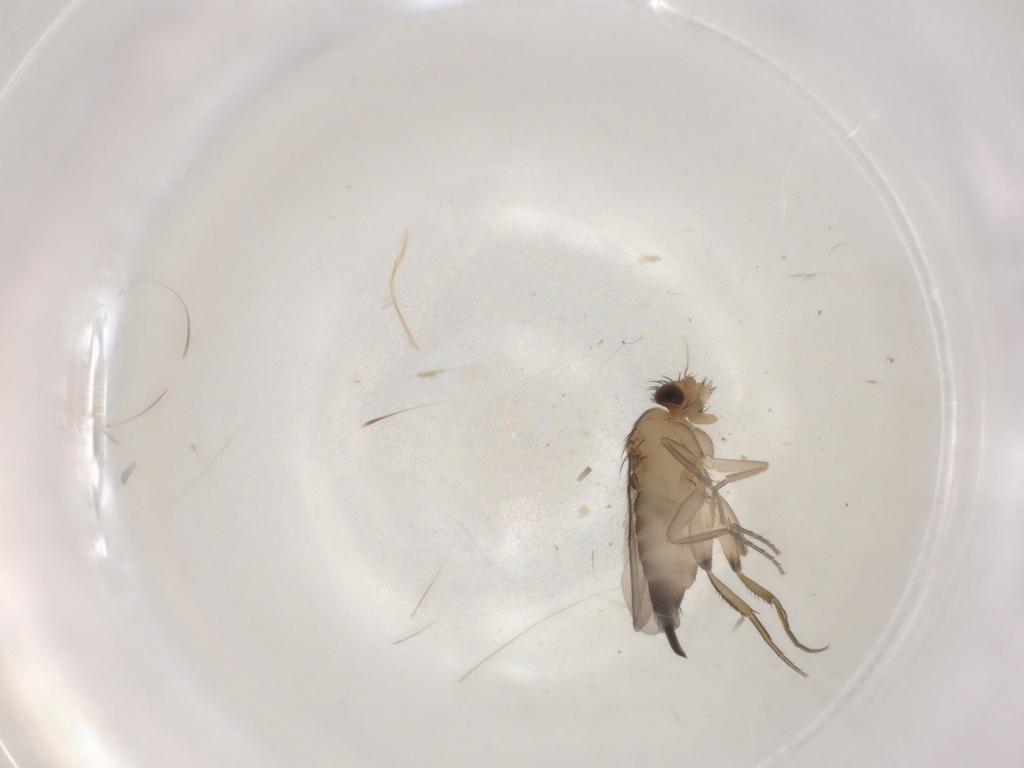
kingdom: Animalia
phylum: Arthropoda
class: Insecta
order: Diptera
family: Phoridae
